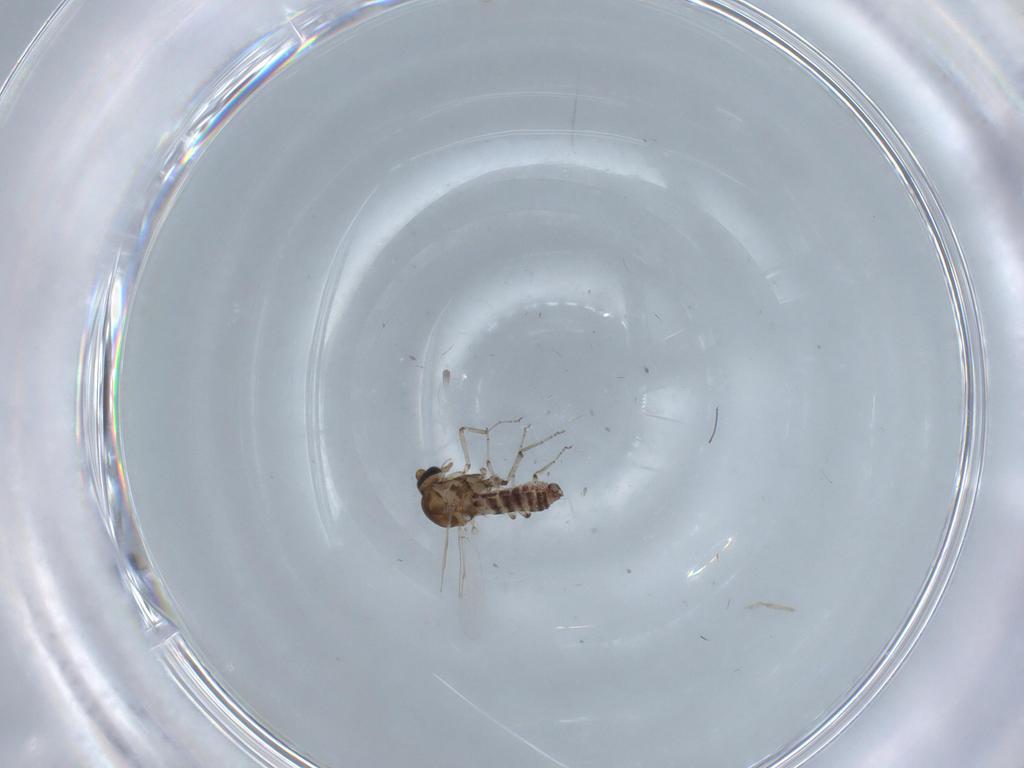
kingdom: Animalia
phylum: Arthropoda
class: Insecta
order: Diptera
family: Ceratopogonidae
